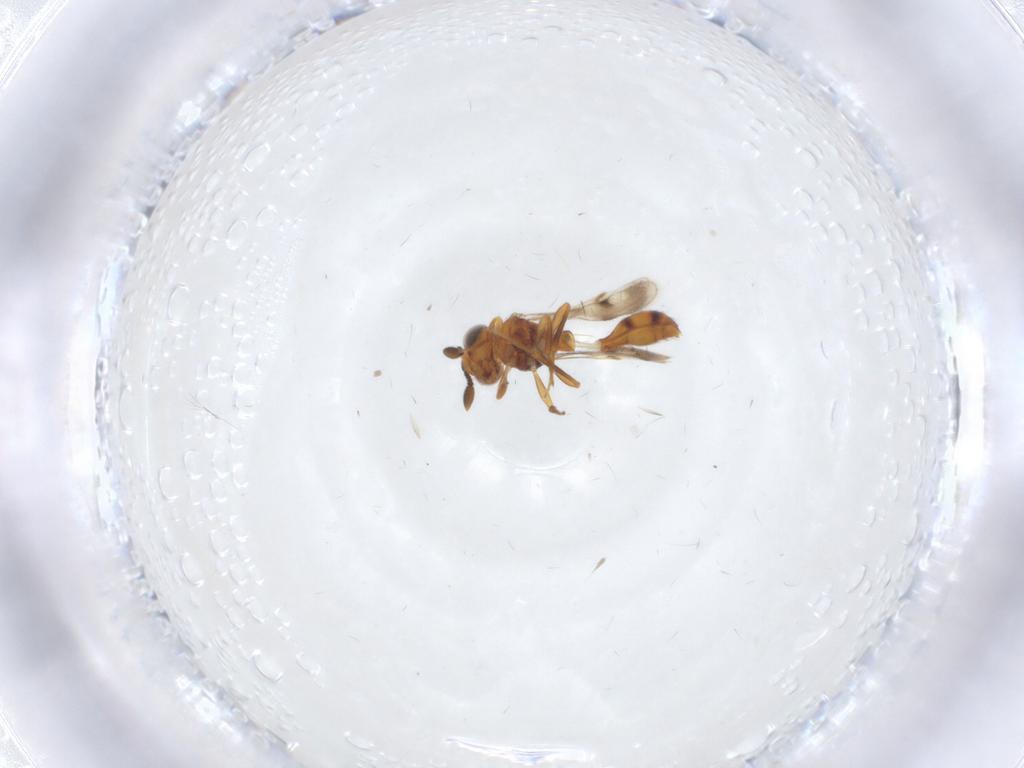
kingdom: Animalia
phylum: Arthropoda
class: Insecta
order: Hymenoptera
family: Scelionidae
